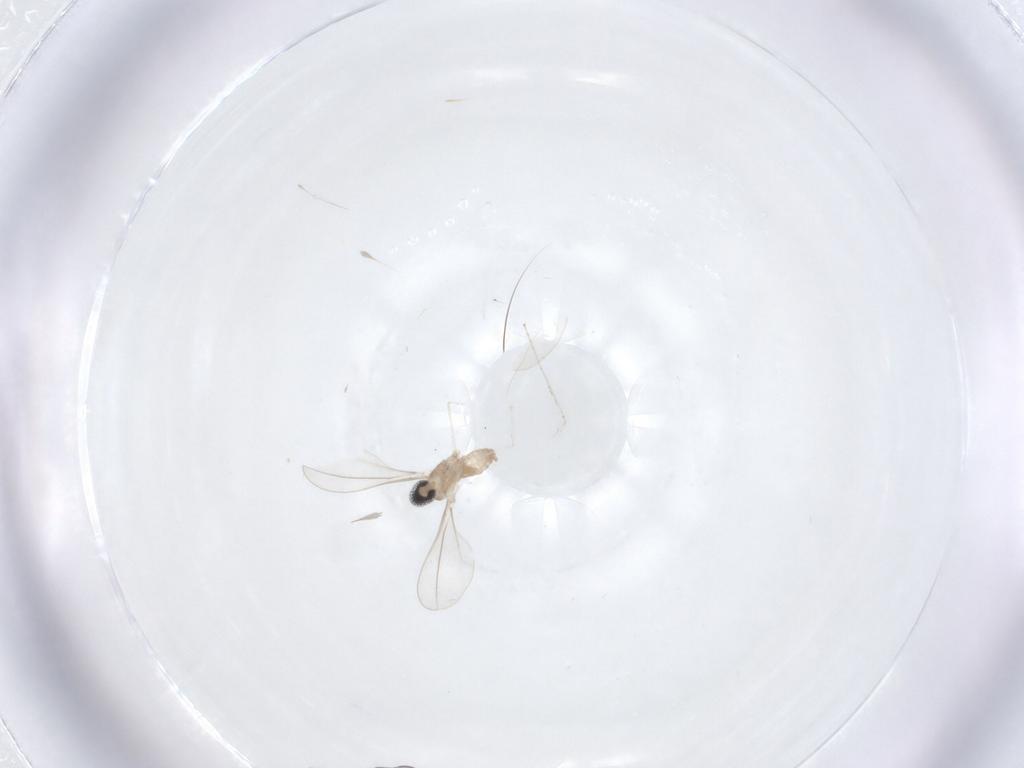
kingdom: Animalia
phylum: Arthropoda
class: Insecta
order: Diptera
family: Cecidomyiidae
